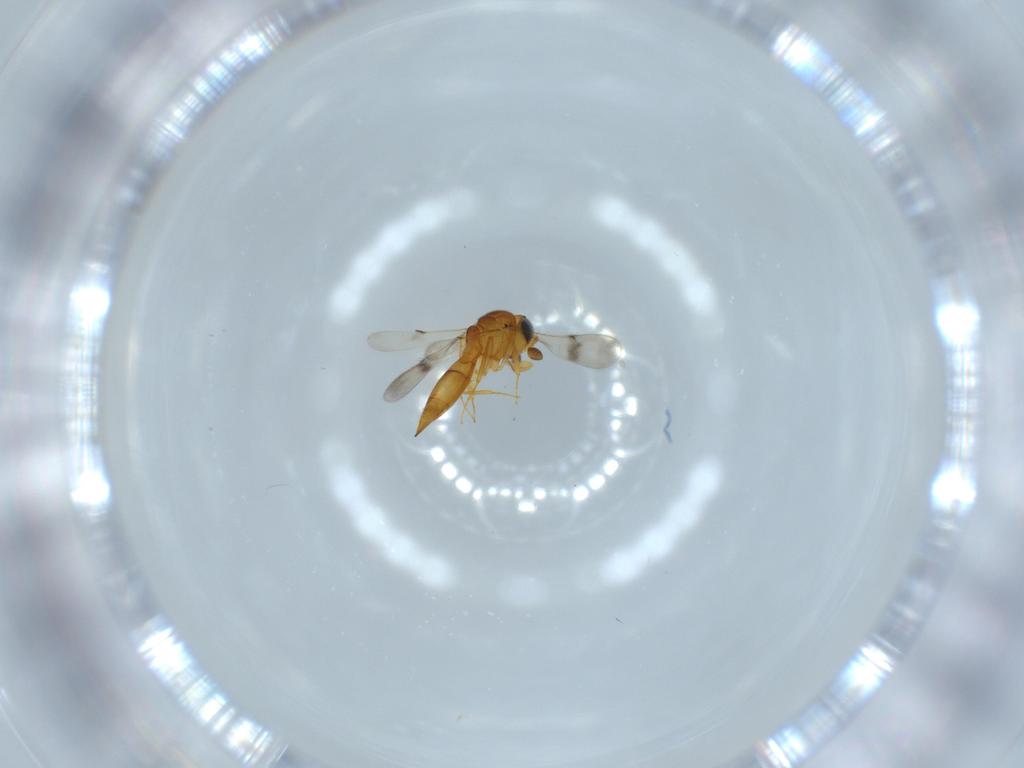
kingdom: Animalia
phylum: Arthropoda
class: Insecta
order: Hymenoptera
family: Scelionidae
